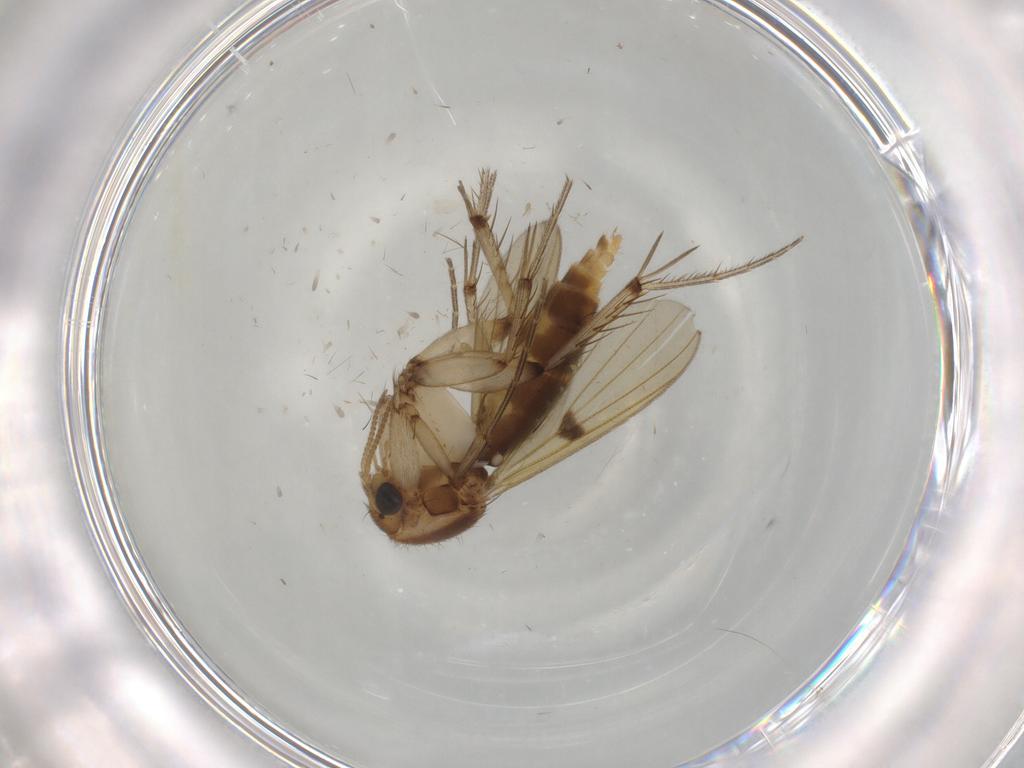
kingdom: Animalia
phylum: Arthropoda
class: Insecta
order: Diptera
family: Mycetophilidae
